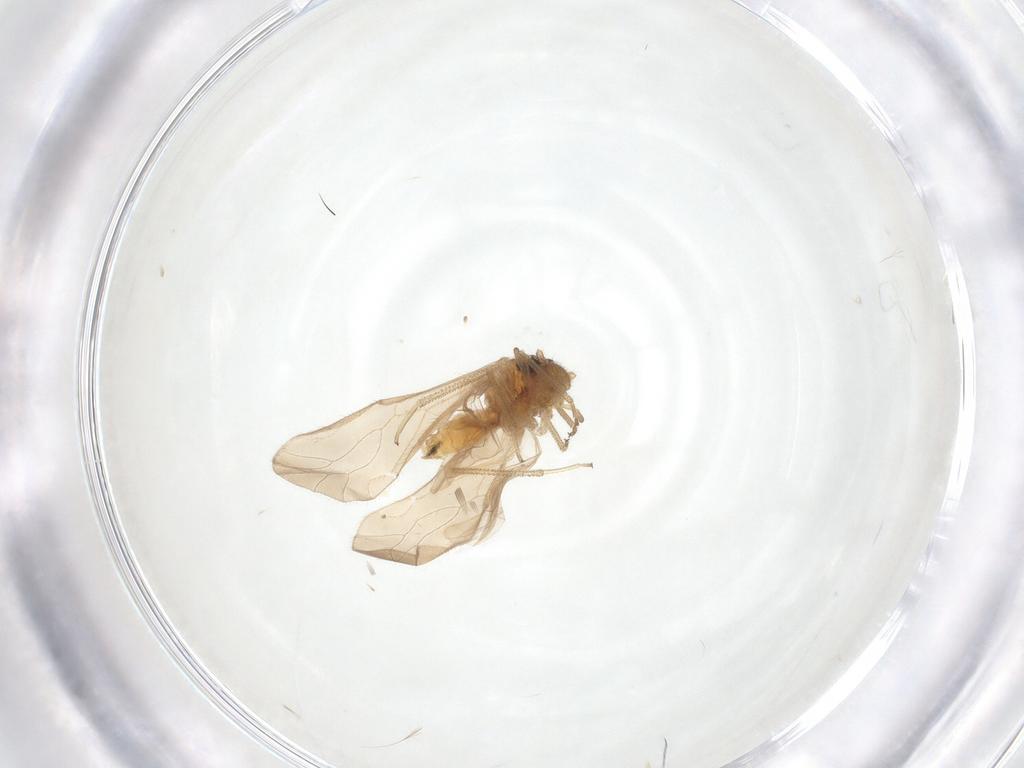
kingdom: Animalia
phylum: Arthropoda
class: Insecta
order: Psocodea
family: Caeciliusidae
